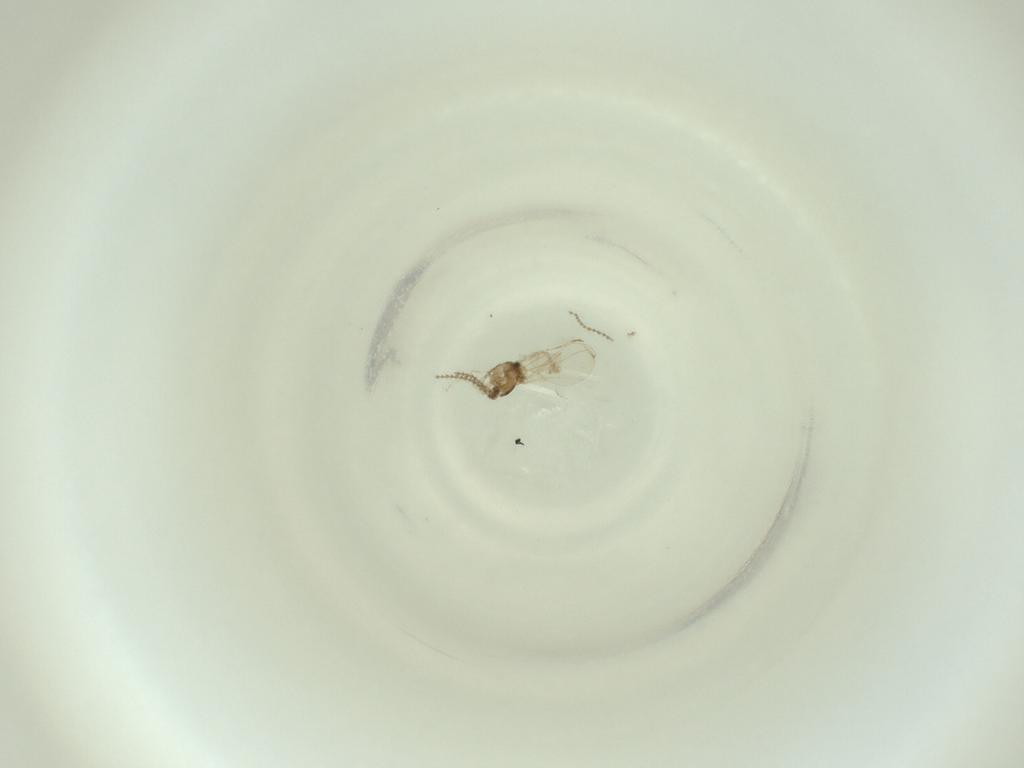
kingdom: Animalia
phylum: Arthropoda
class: Insecta
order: Diptera
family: Cecidomyiidae
